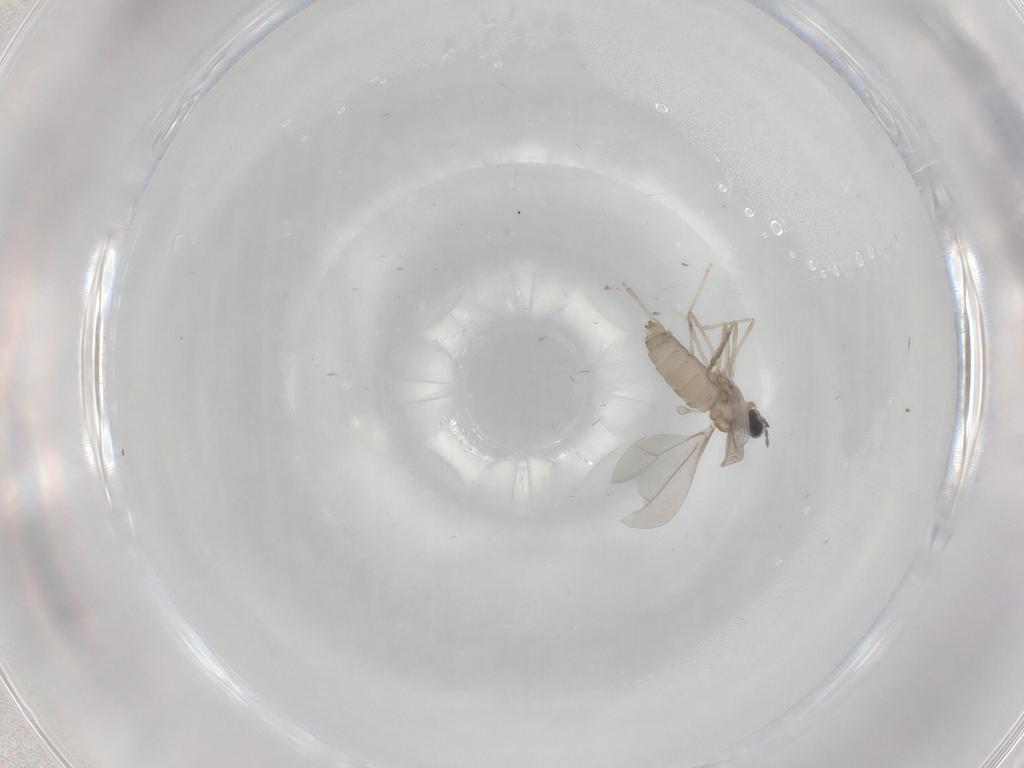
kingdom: Animalia
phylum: Arthropoda
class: Insecta
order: Diptera
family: Cecidomyiidae
